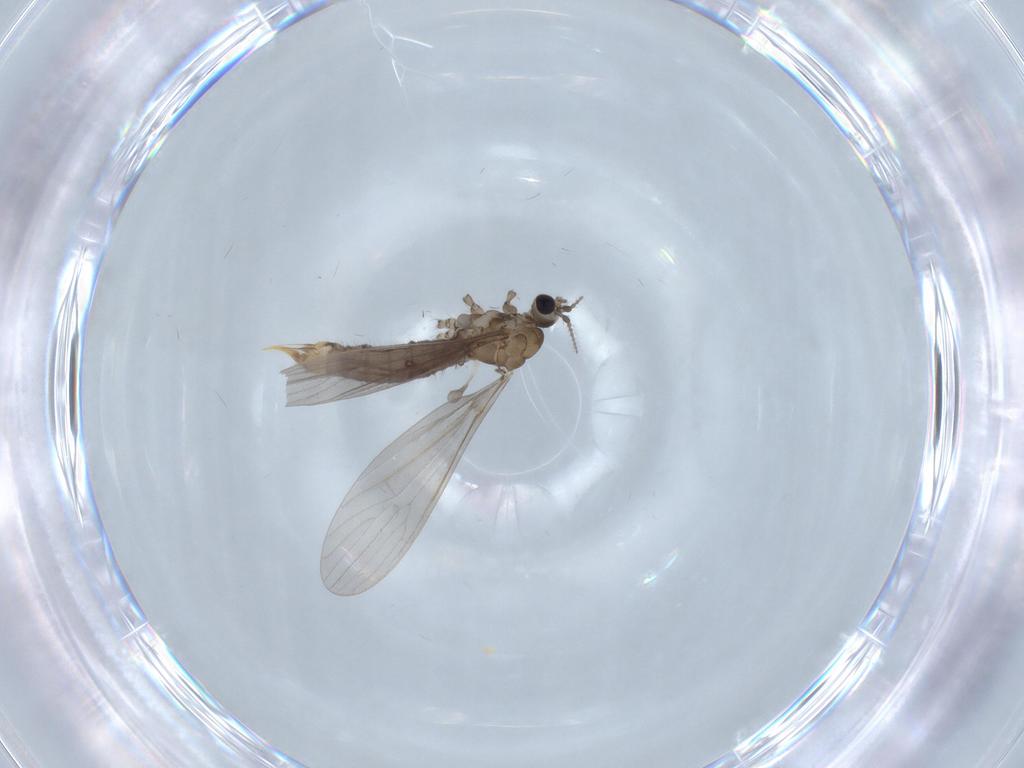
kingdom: Animalia
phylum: Arthropoda
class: Insecta
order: Diptera
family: Limoniidae
